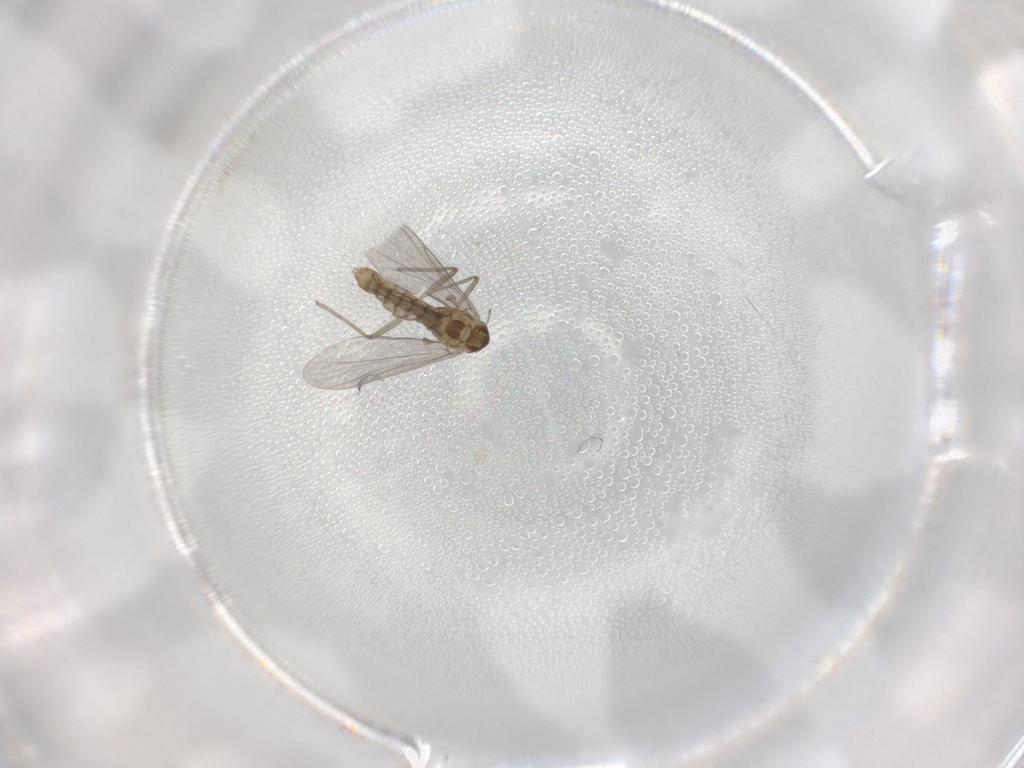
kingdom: Animalia
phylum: Arthropoda
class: Insecta
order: Diptera
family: Chironomidae
